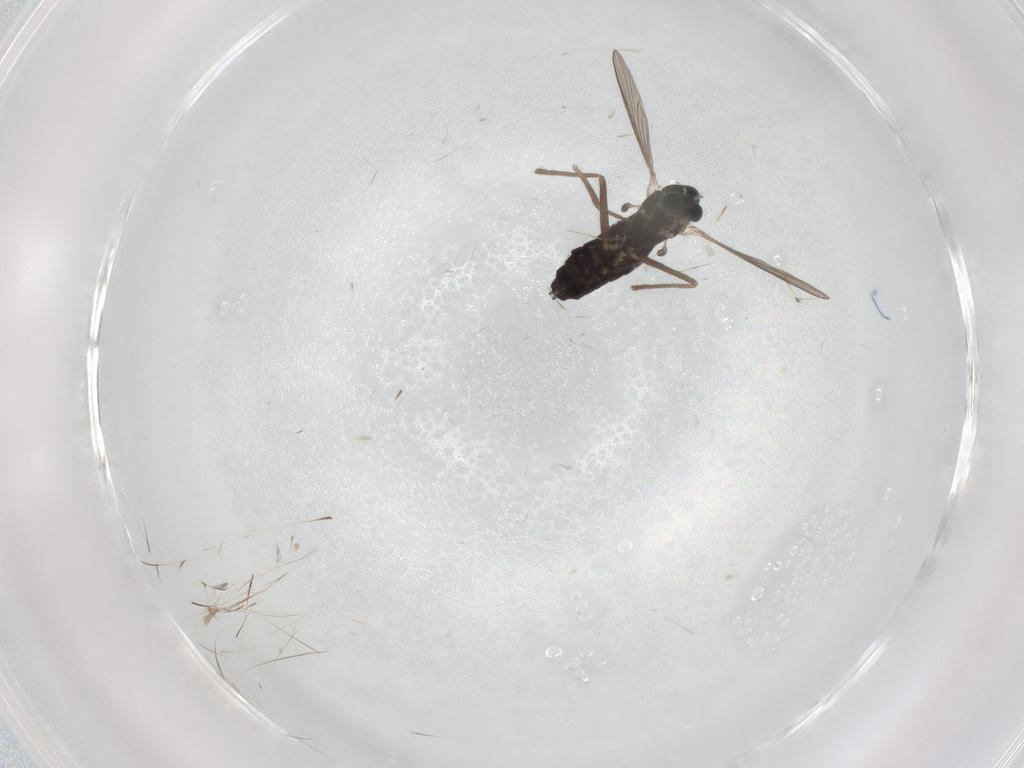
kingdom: Animalia
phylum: Arthropoda
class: Insecta
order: Diptera
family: Chironomidae
